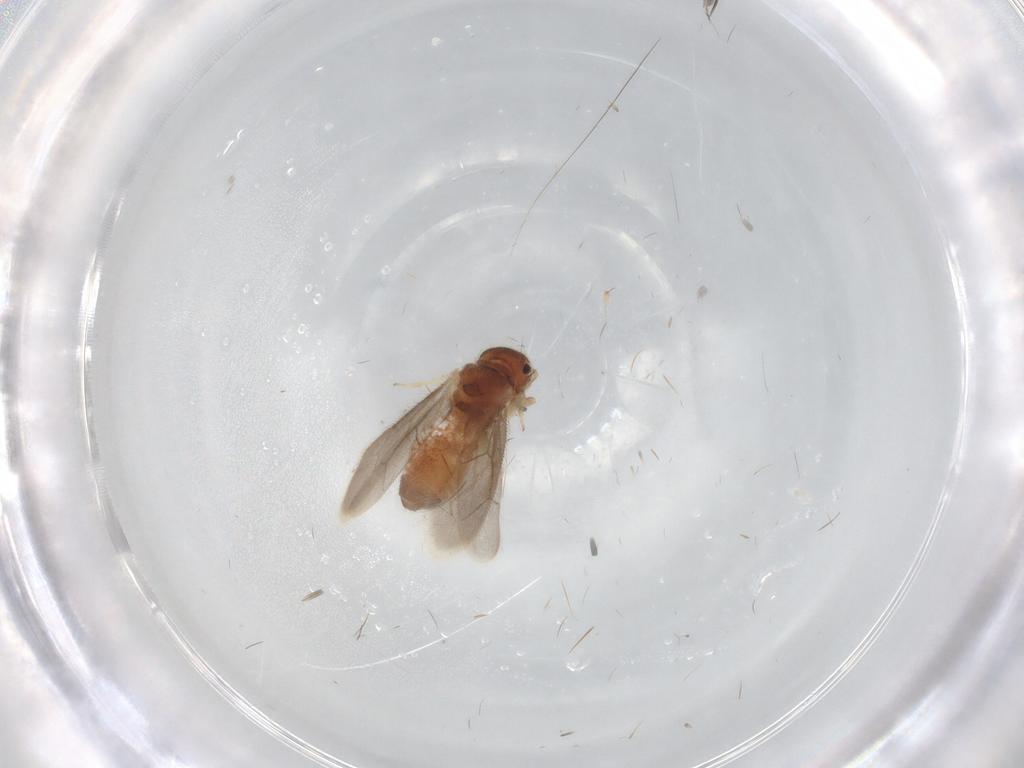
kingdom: Animalia
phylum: Arthropoda
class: Insecta
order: Psocodea
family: Archipsocidae
